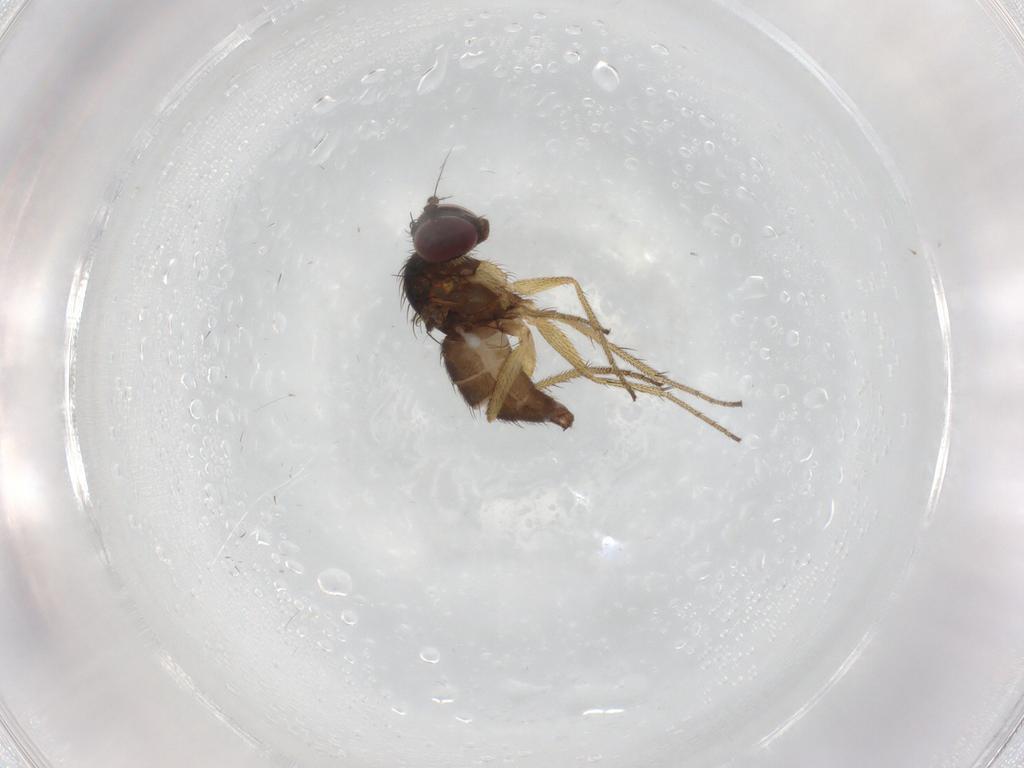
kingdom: Animalia
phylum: Arthropoda
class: Insecta
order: Diptera
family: Dolichopodidae
